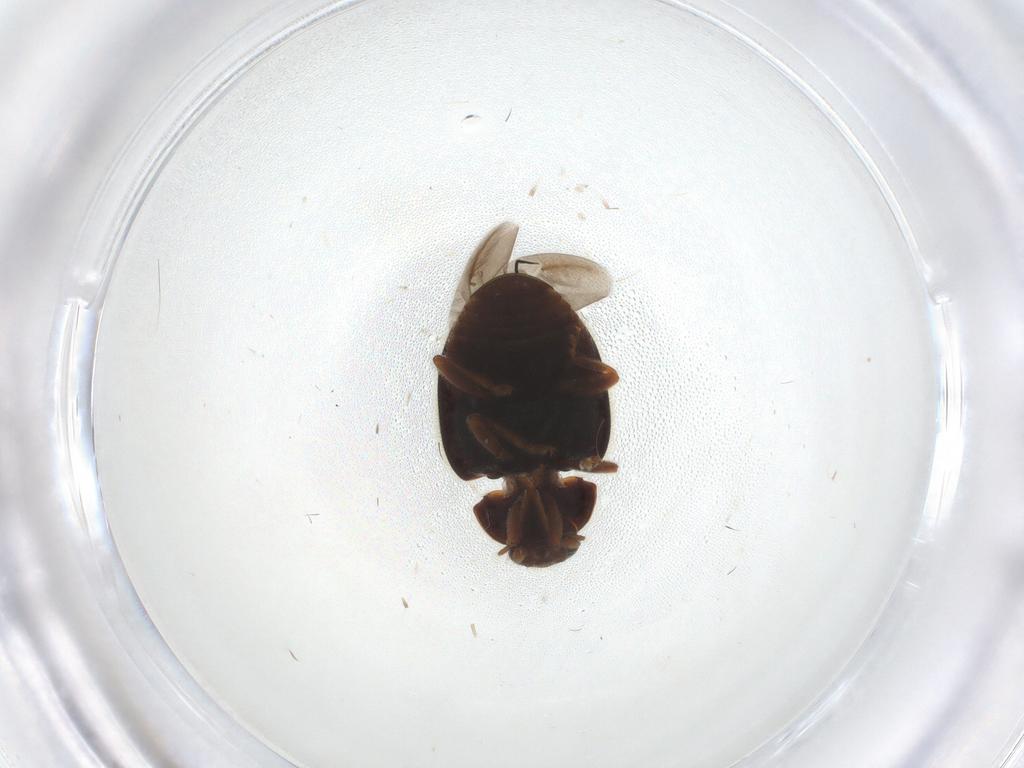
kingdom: Animalia
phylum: Arthropoda
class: Insecta
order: Coleoptera
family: Coccinellidae
